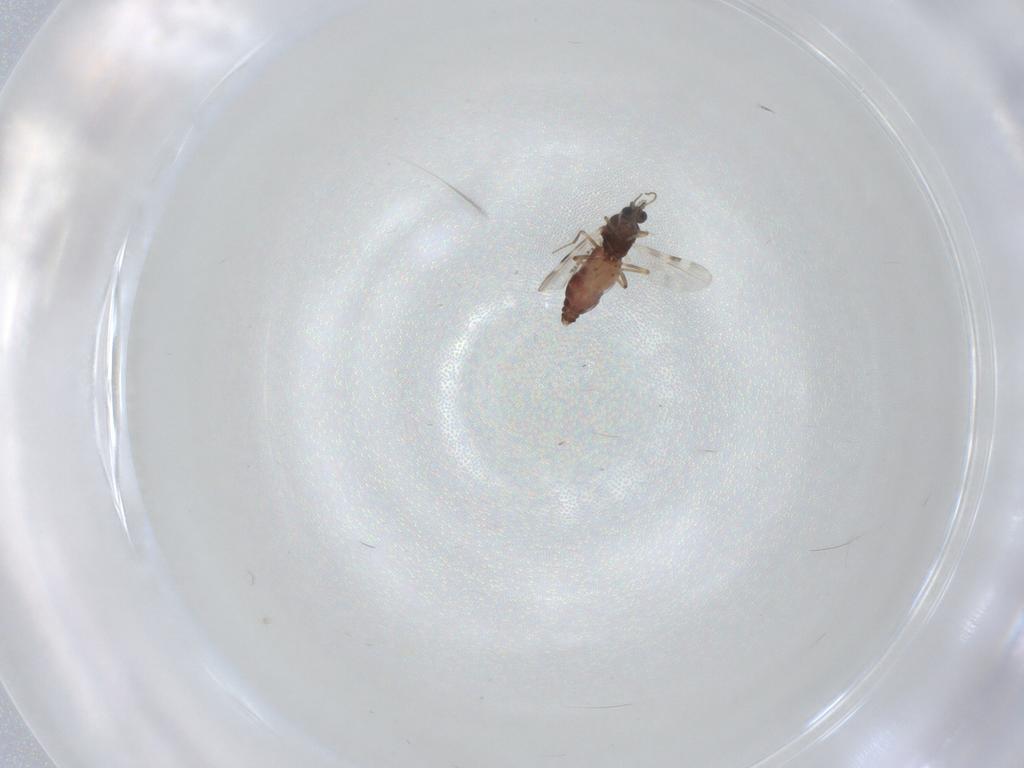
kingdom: Animalia
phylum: Arthropoda
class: Insecta
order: Diptera
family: Psychodidae
